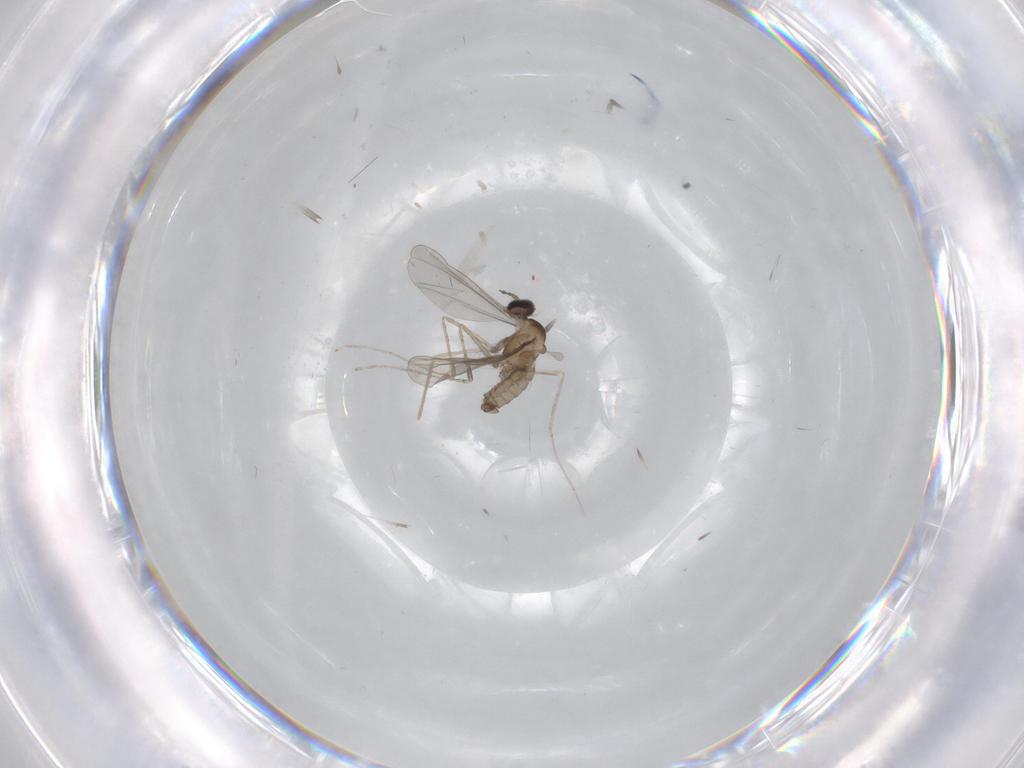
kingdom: Animalia
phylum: Arthropoda
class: Insecta
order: Diptera
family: Cecidomyiidae
